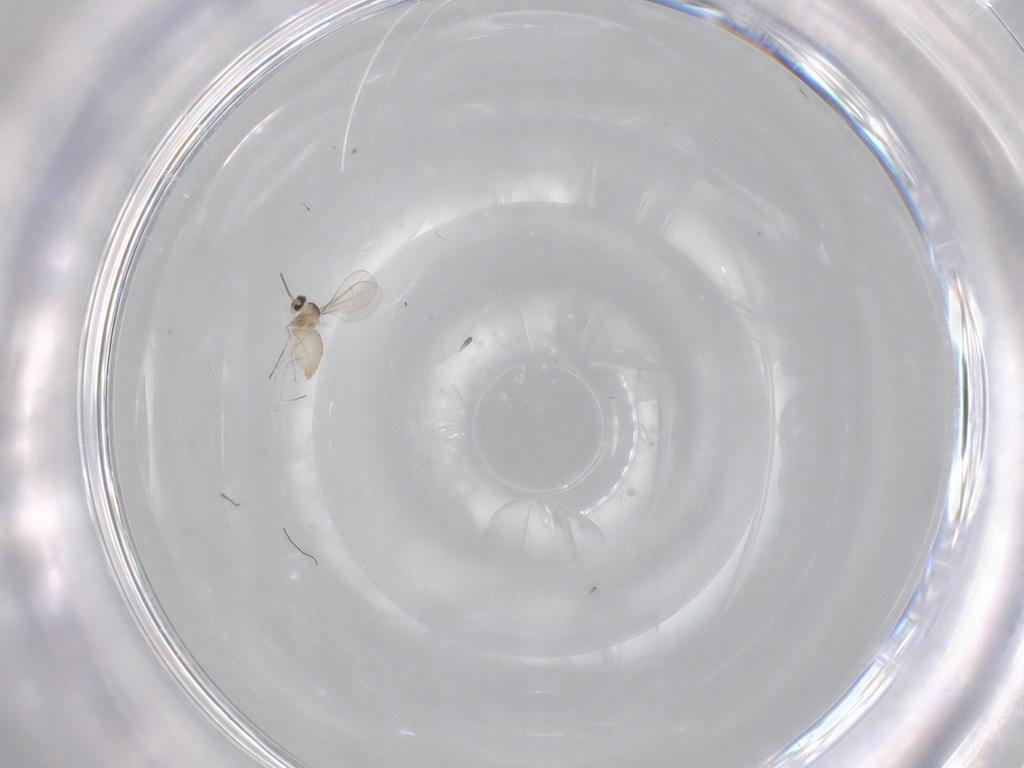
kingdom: Animalia
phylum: Arthropoda
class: Insecta
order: Diptera
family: Cecidomyiidae
